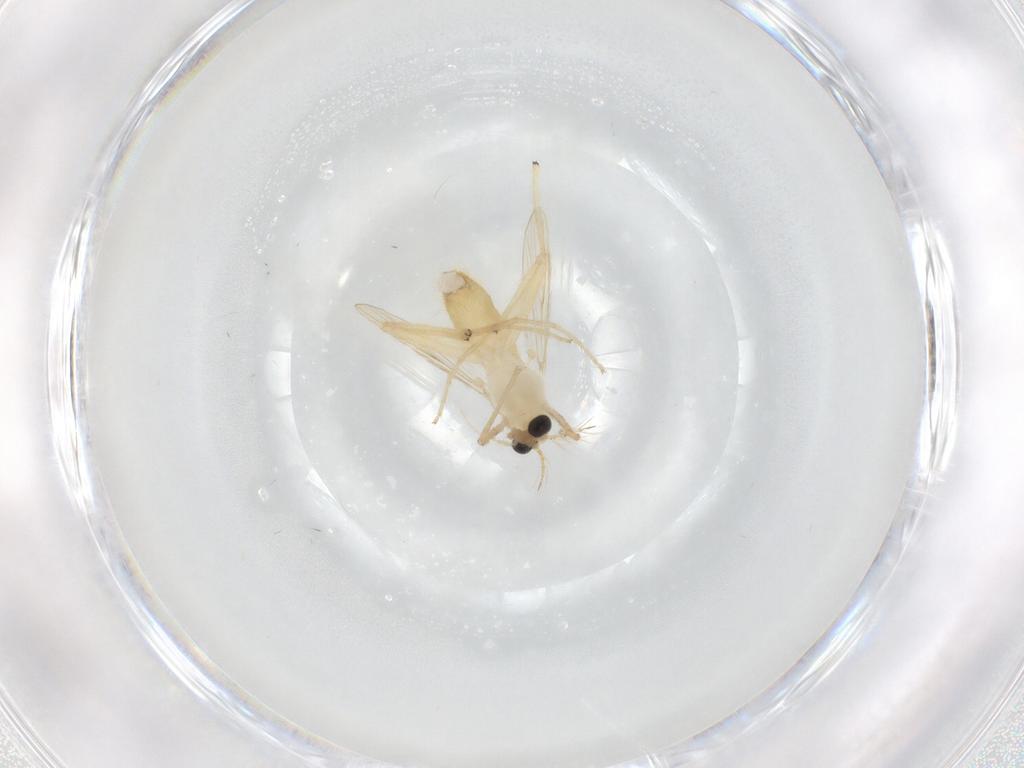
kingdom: Animalia
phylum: Arthropoda
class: Insecta
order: Diptera
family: Chironomidae
